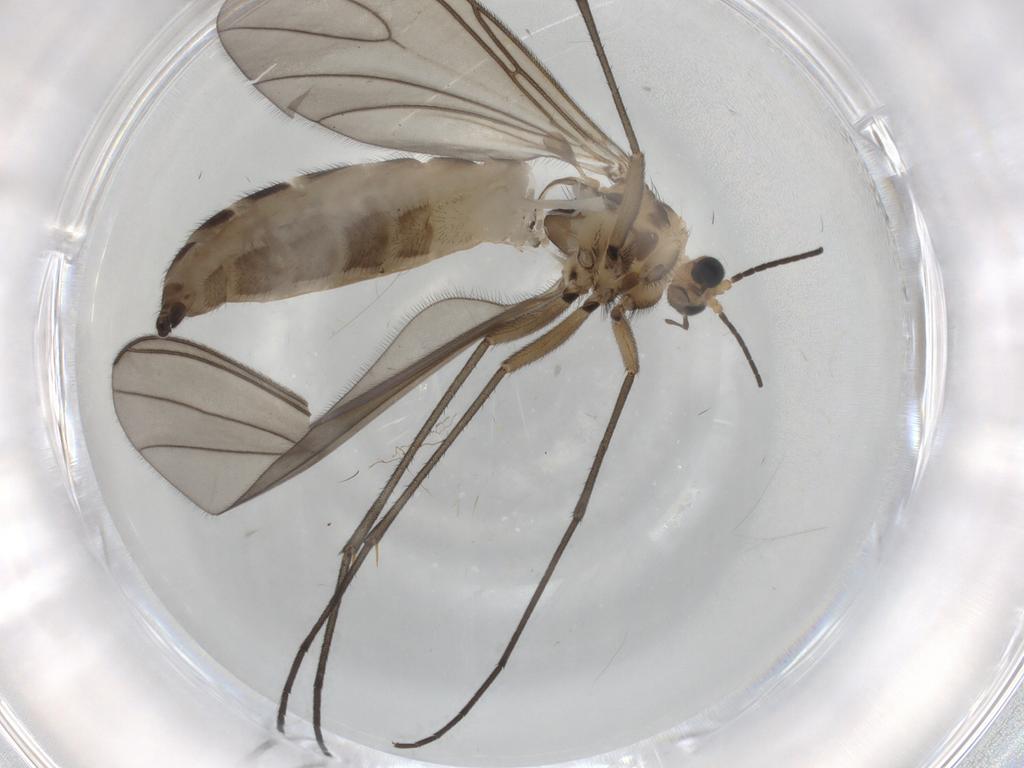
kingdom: Animalia
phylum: Arthropoda
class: Insecta
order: Diptera
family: Sciaridae
